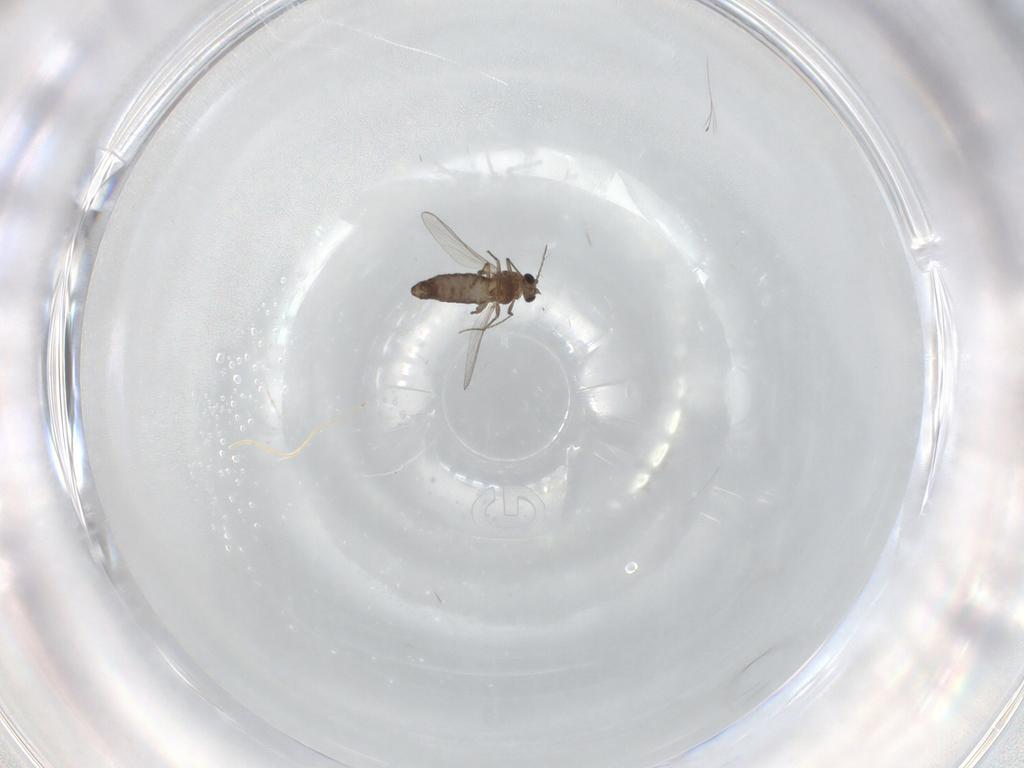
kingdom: Animalia
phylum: Arthropoda
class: Insecta
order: Diptera
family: Chironomidae
